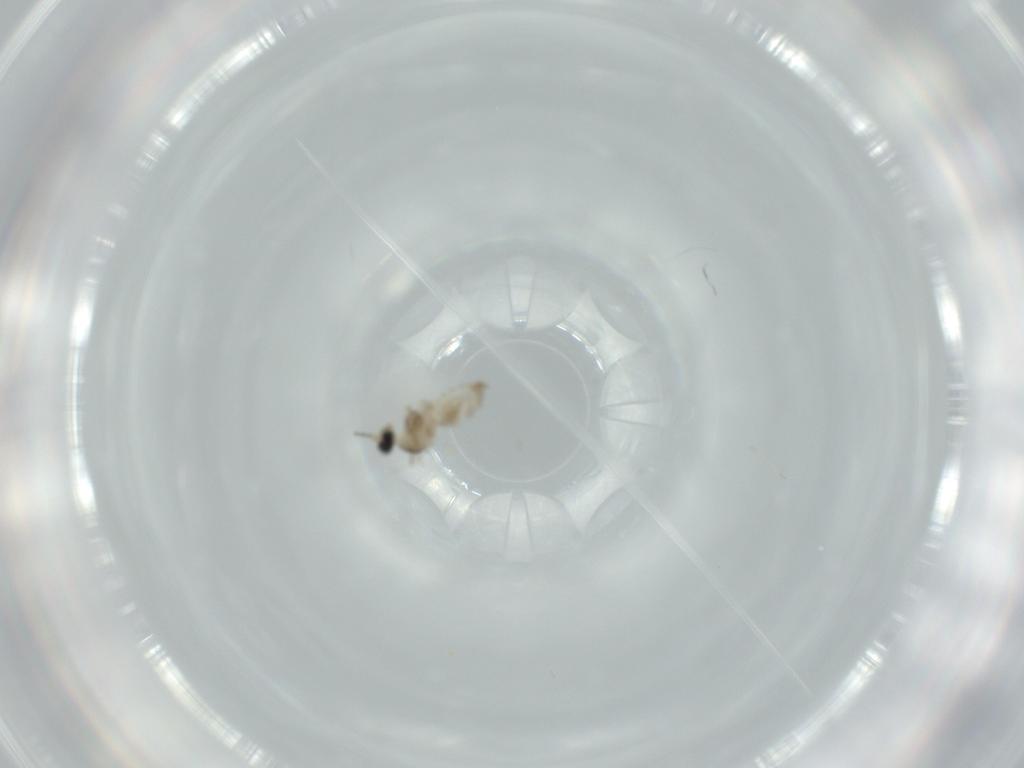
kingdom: Animalia
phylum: Arthropoda
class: Insecta
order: Diptera
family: Cecidomyiidae
